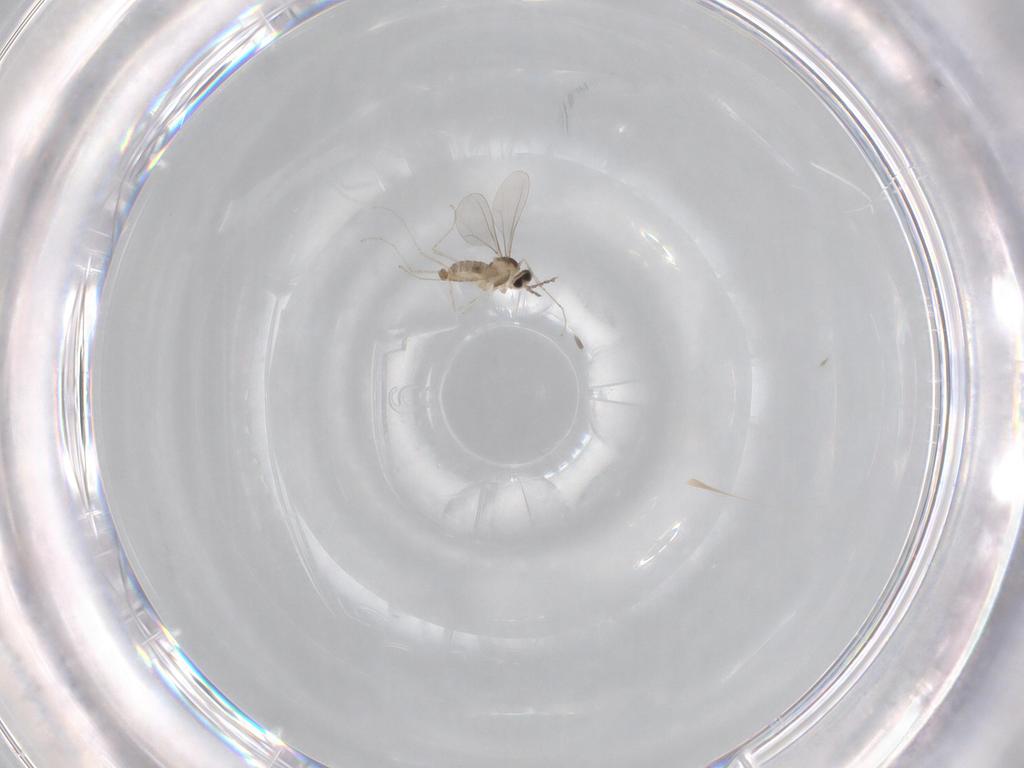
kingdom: Animalia
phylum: Arthropoda
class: Insecta
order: Diptera
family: Cecidomyiidae
